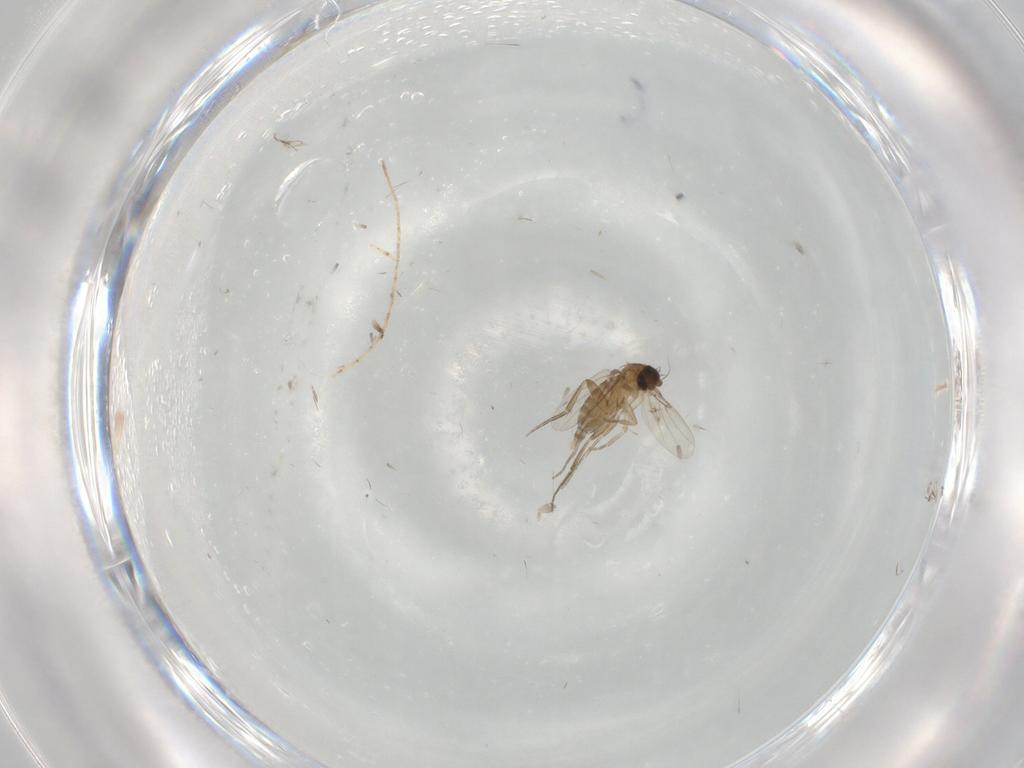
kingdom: Animalia
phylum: Arthropoda
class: Insecta
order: Diptera
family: Phoridae
